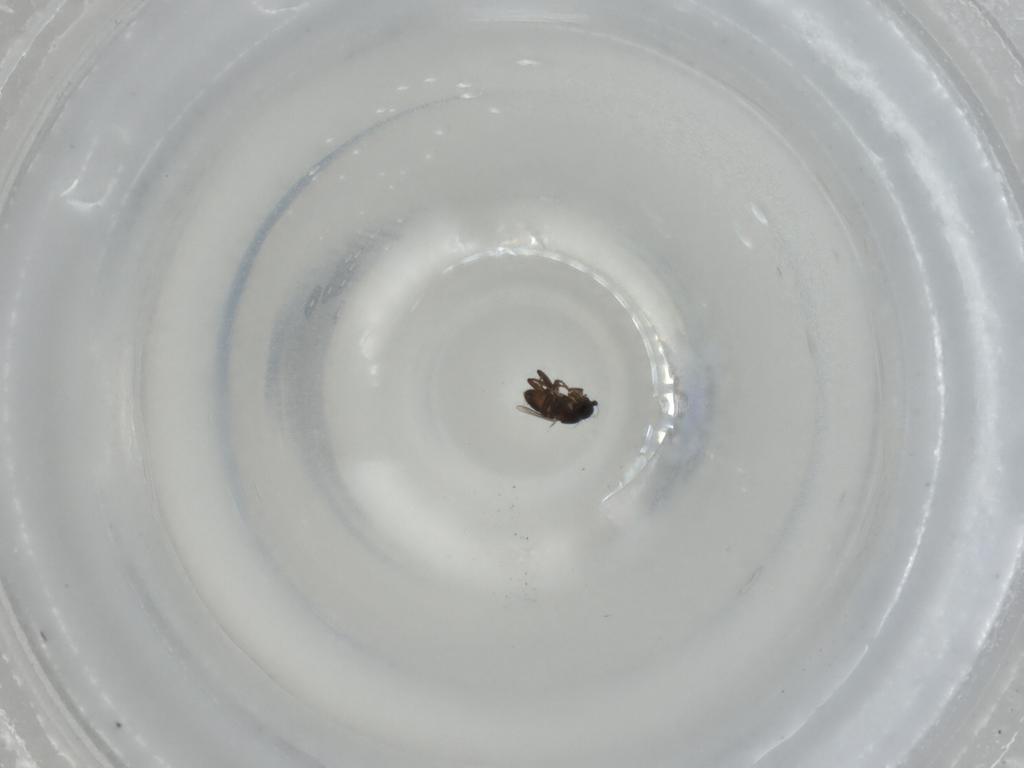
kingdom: Animalia
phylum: Arthropoda
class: Insecta
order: Diptera
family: Sphaeroceridae
